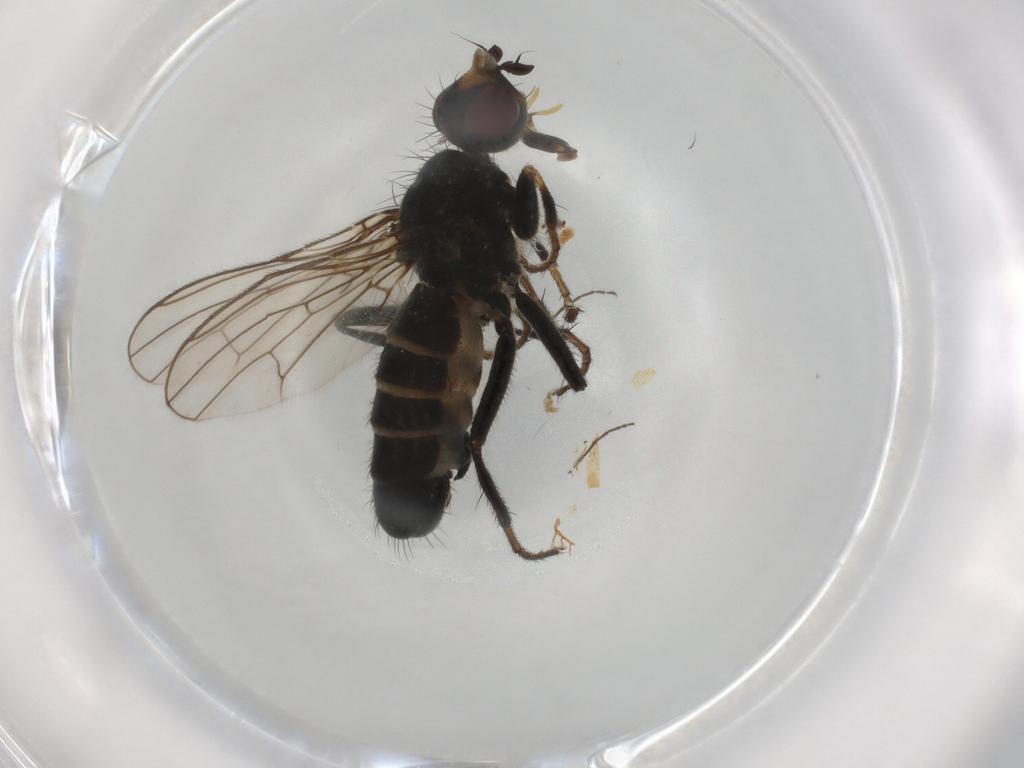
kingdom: Animalia
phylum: Arthropoda
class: Insecta
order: Diptera
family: Scathophagidae
